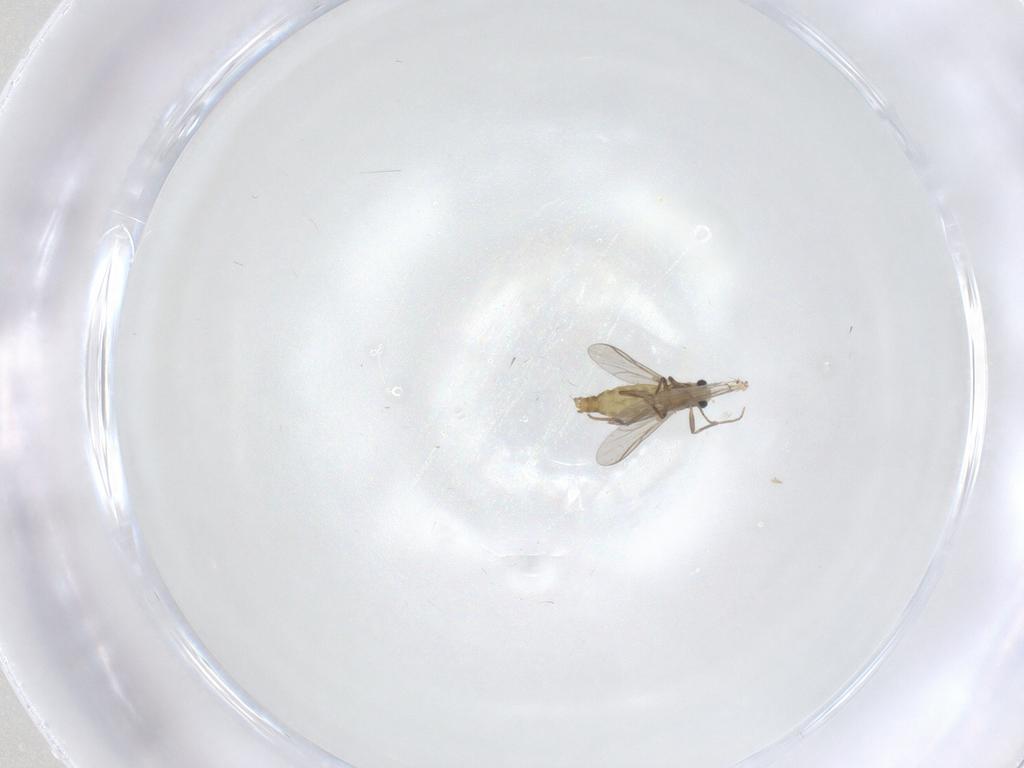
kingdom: Animalia
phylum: Arthropoda
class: Insecta
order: Diptera
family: Chironomidae
